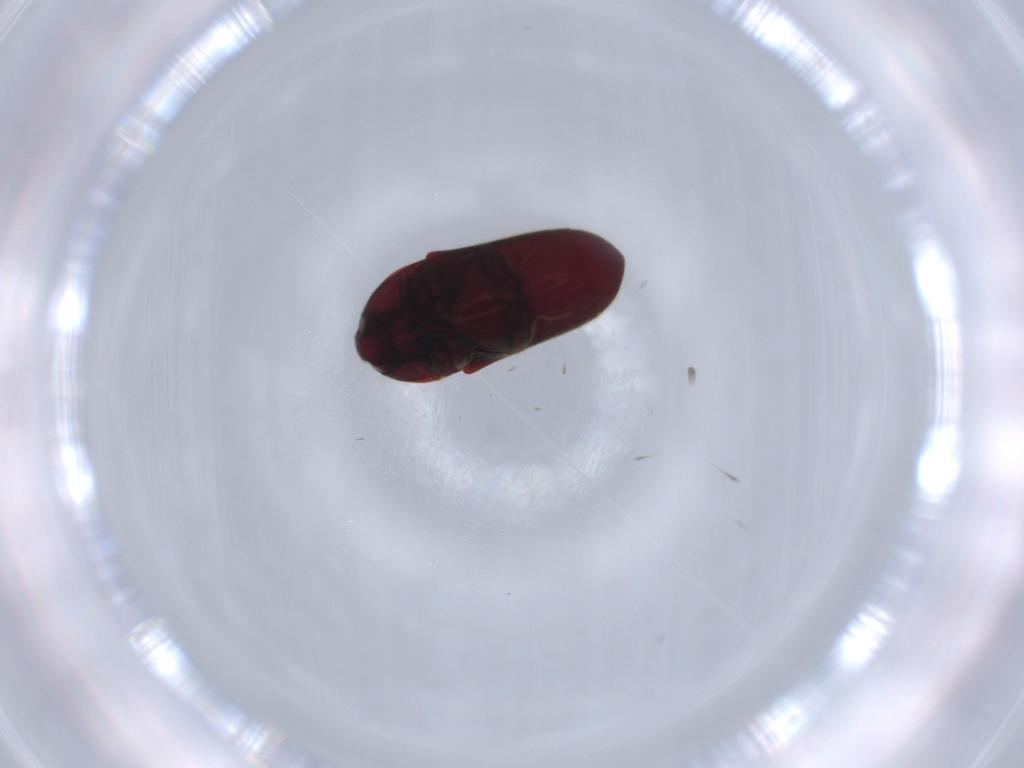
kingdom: Animalia
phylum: Arthropoda
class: Insecta
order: Coleoptera
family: Throscidae
